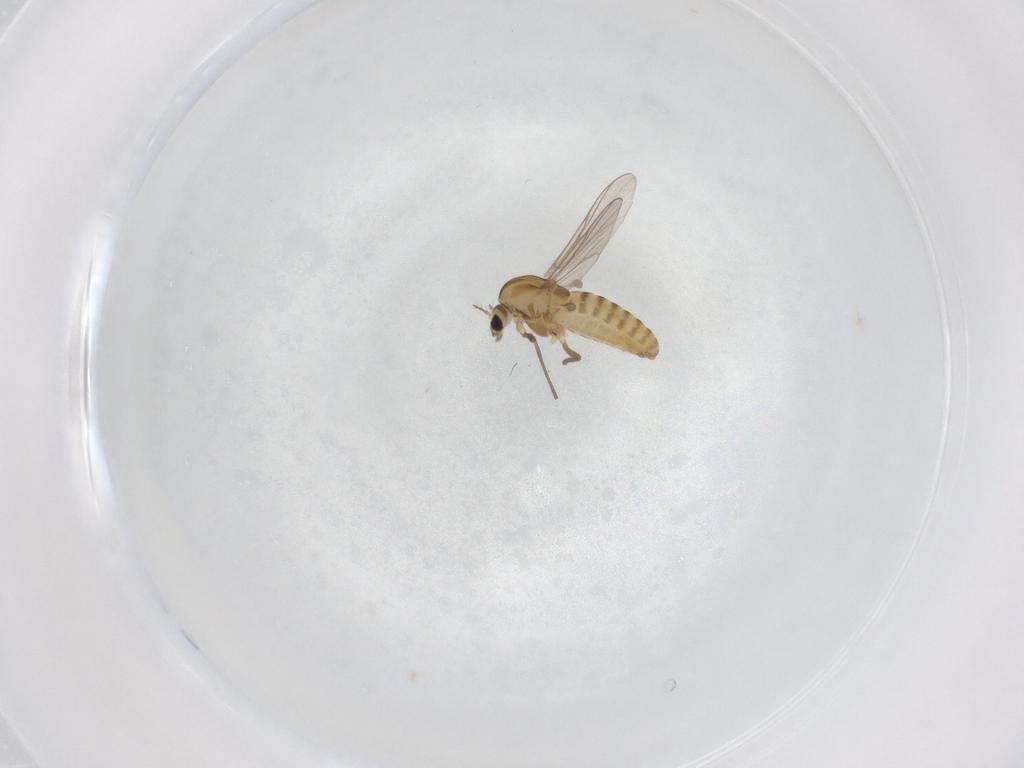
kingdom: Animalia
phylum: Arthropoda
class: Insecta
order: Diptera
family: Chironomidae
